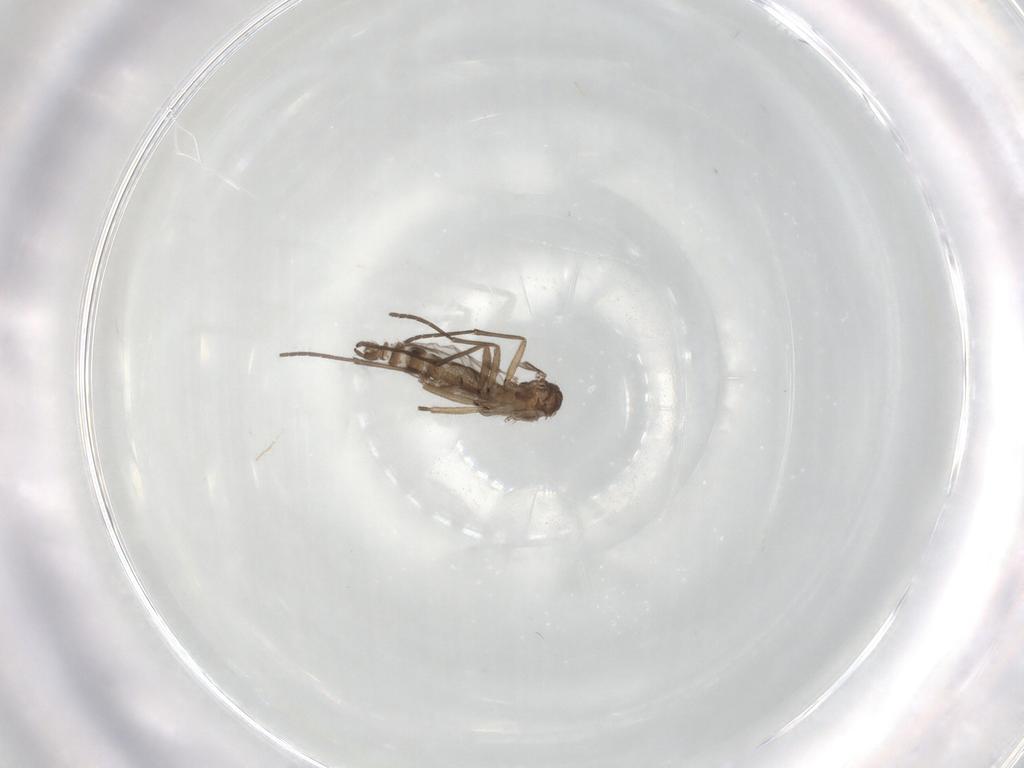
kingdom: Animalia
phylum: Arthropoda
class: Insecta
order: Diptera
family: Sciaridae
